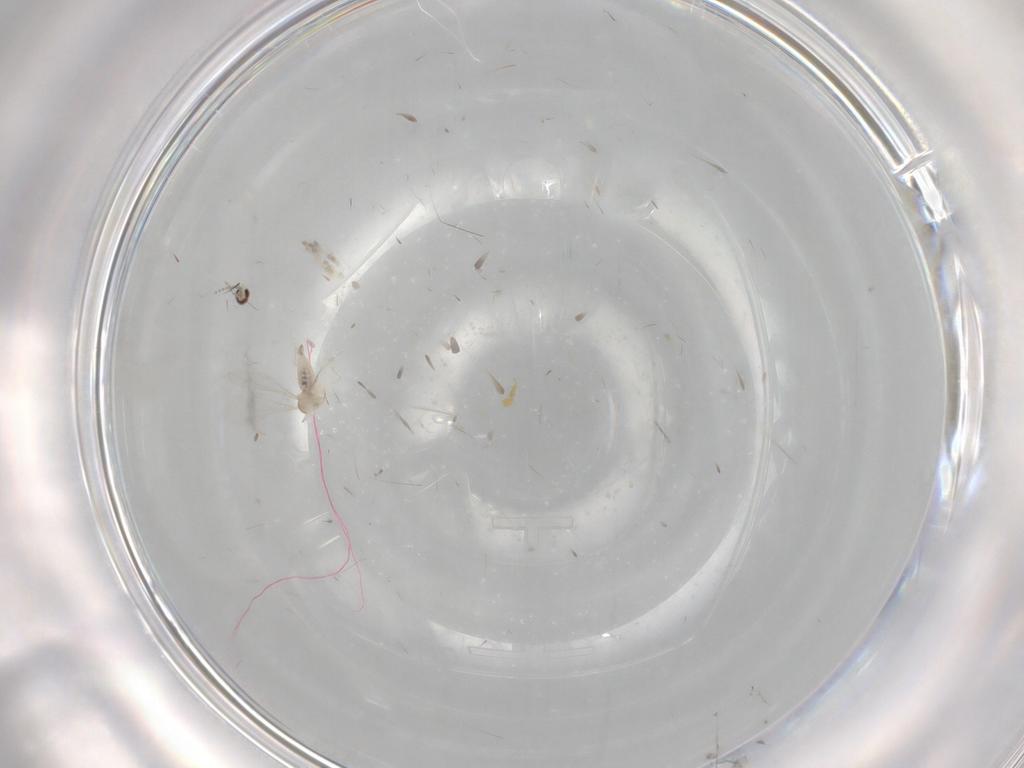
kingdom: Animalia
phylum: Arthropoda
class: Insecta
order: Diptera
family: Chironomidae
